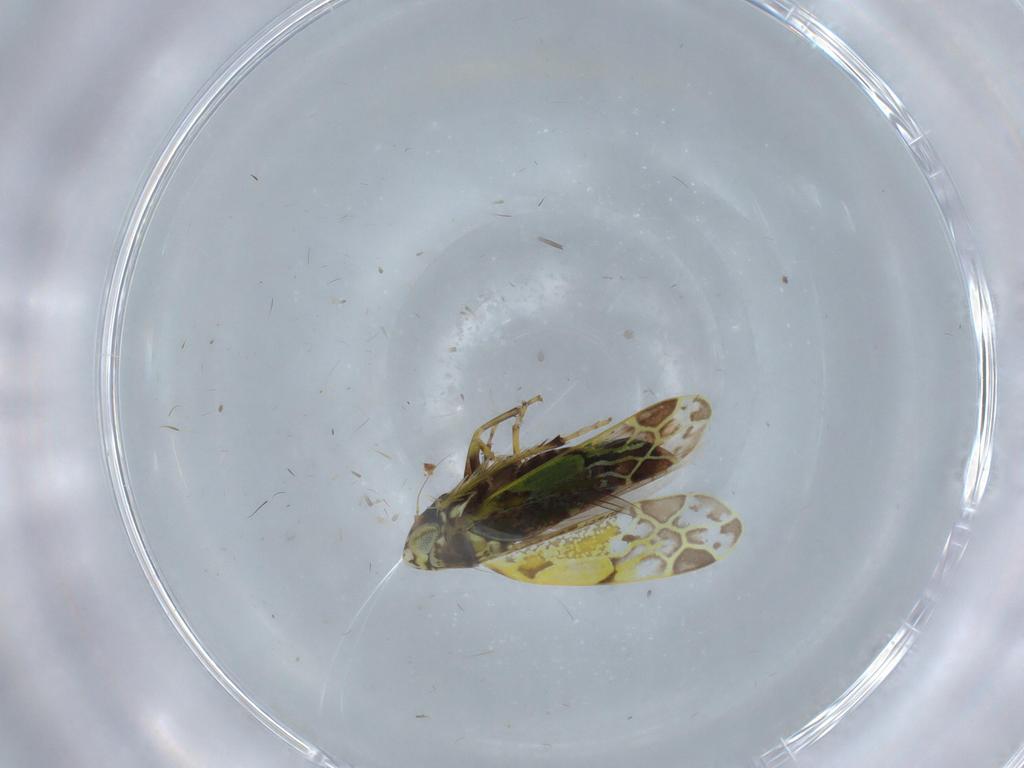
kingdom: Animalia
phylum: Arthropoda
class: Insecta
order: Hemiptera
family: Cicadellidae
